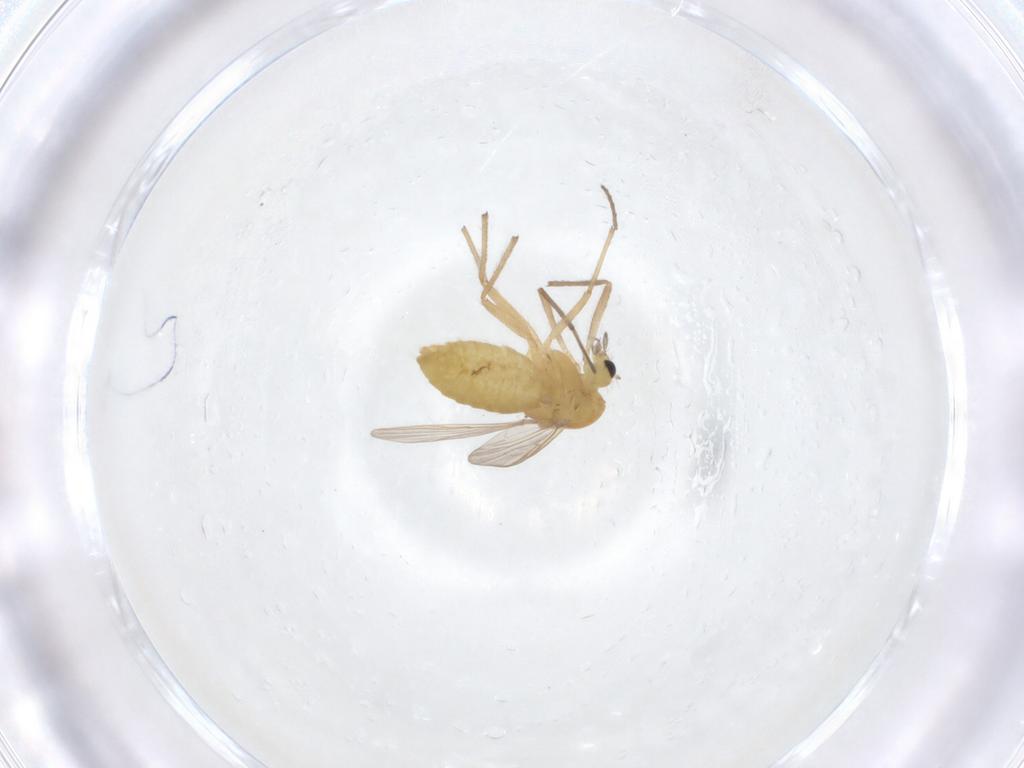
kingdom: Animalia
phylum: Arthropoda
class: Insecta
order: Diptera
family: Chironomidae
